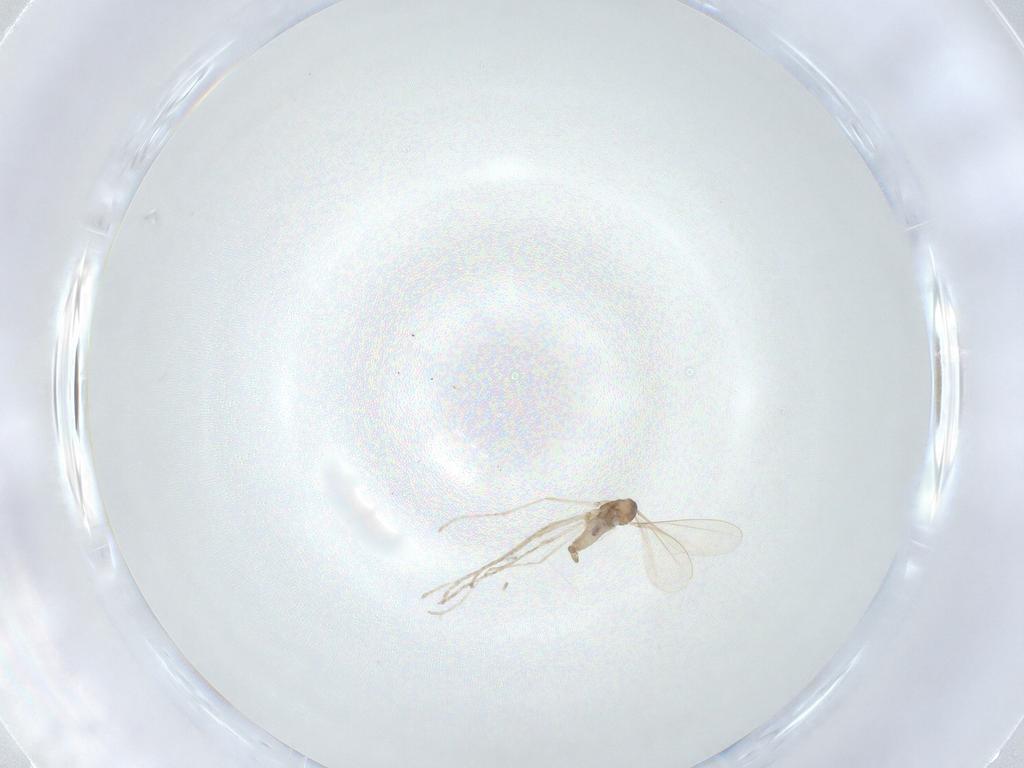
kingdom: Animalia
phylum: Arthropoda
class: Insecta
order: Diptera
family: Cecidomyiidae
